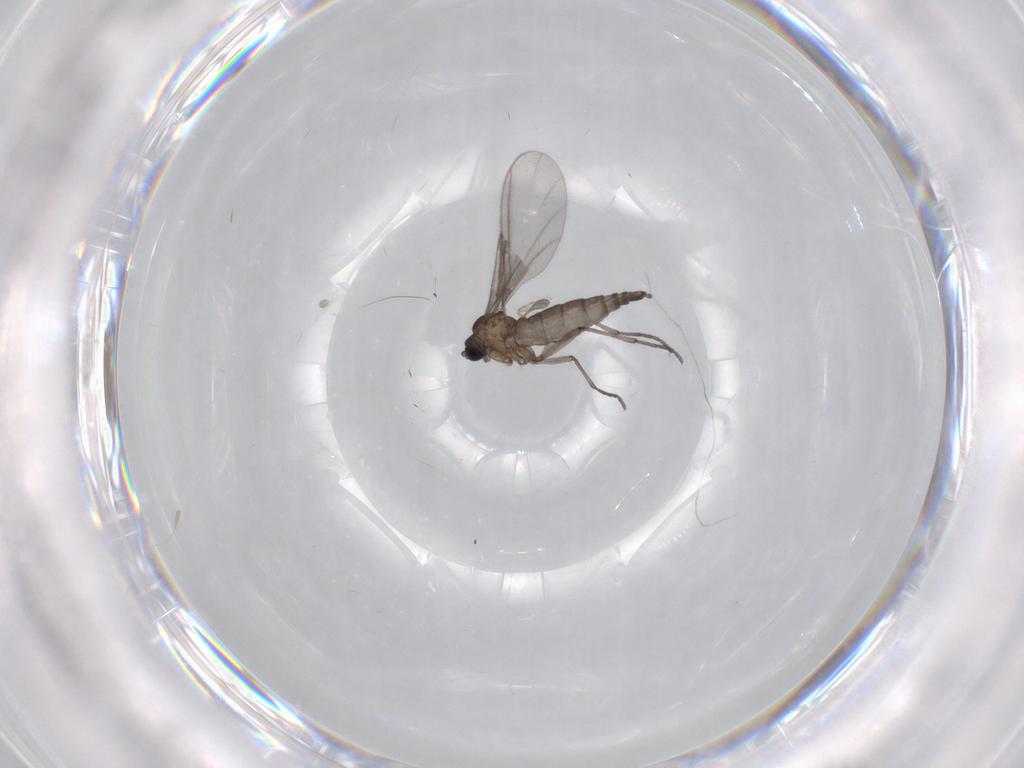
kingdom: Animalia
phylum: Arthropoda
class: Insecta
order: Diptera
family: Sciaridae
